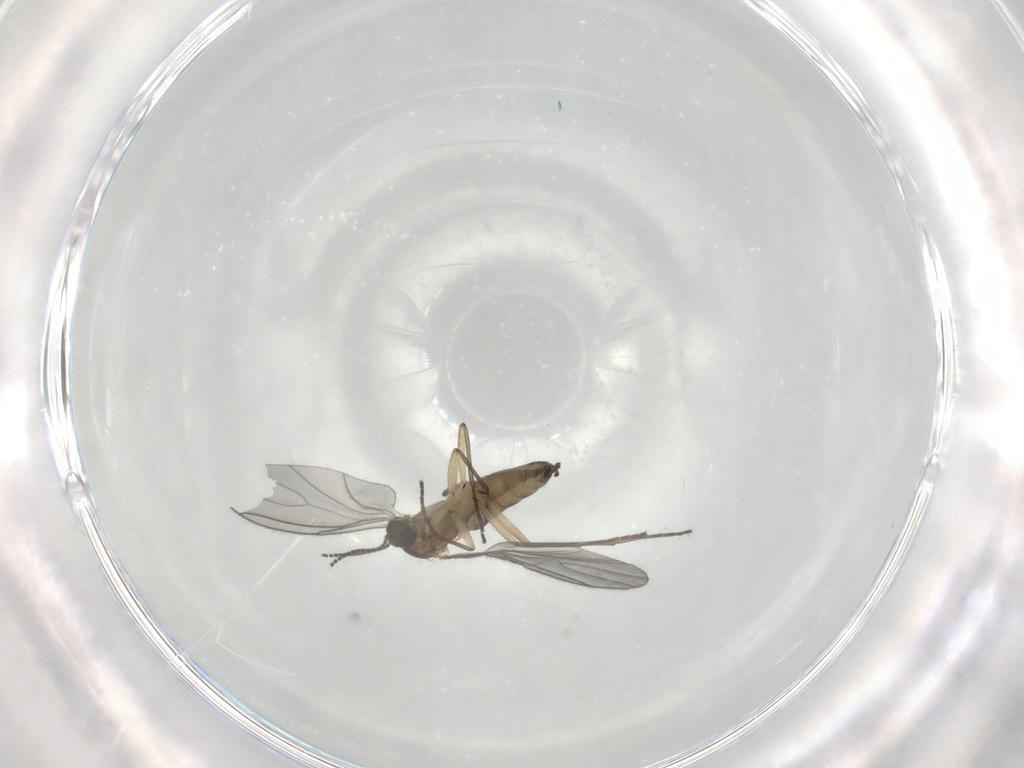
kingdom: Animalia
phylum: Arthropoda
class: Insecta
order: Diptera
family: Sciaridae
